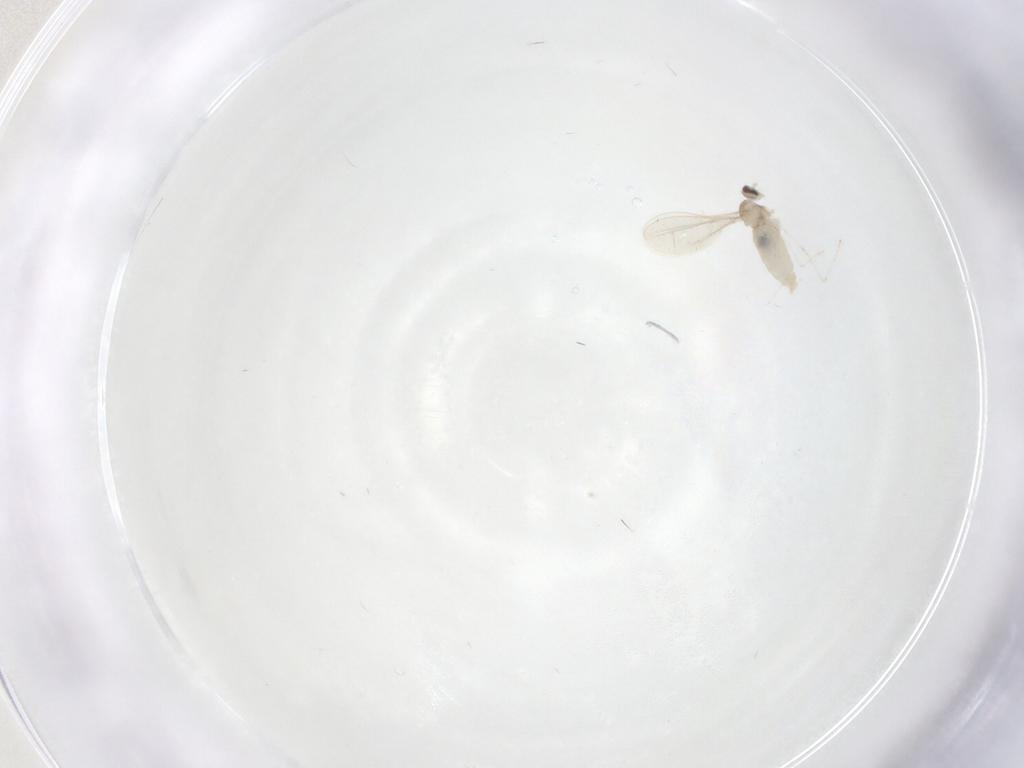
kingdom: Animalia
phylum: Arthropoda
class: Insecta
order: Diptera
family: Cecidomyiidae
